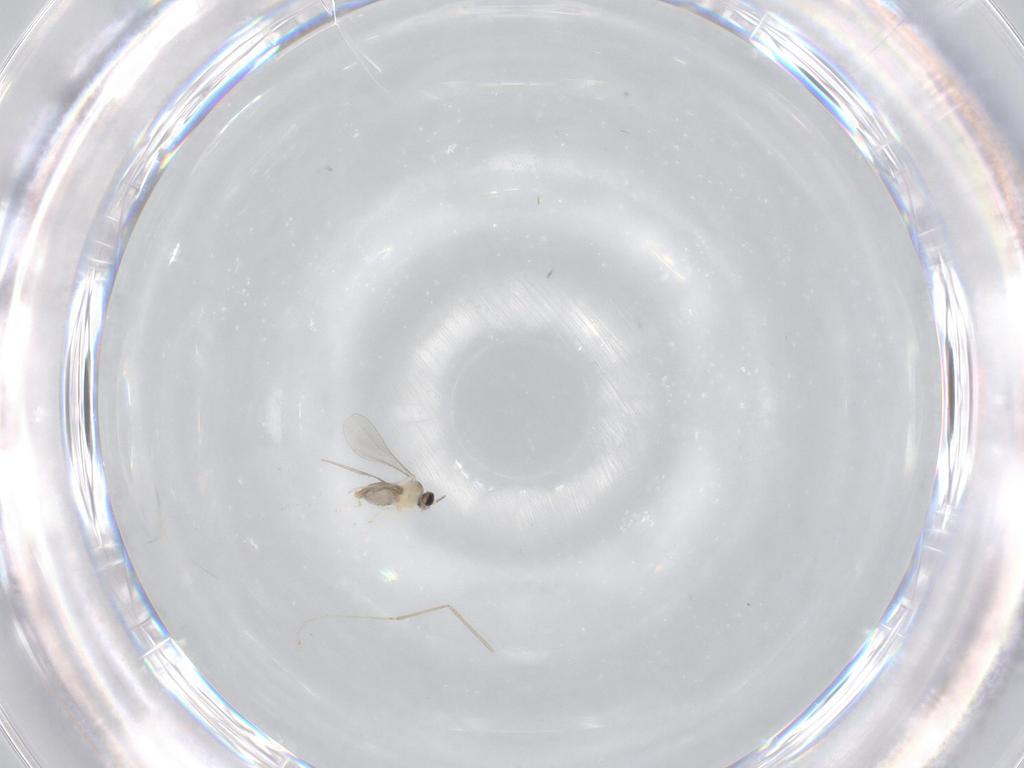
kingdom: Animalia
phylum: Arthropoda
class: Insecta
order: Diptera
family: Cecidomyiidae
